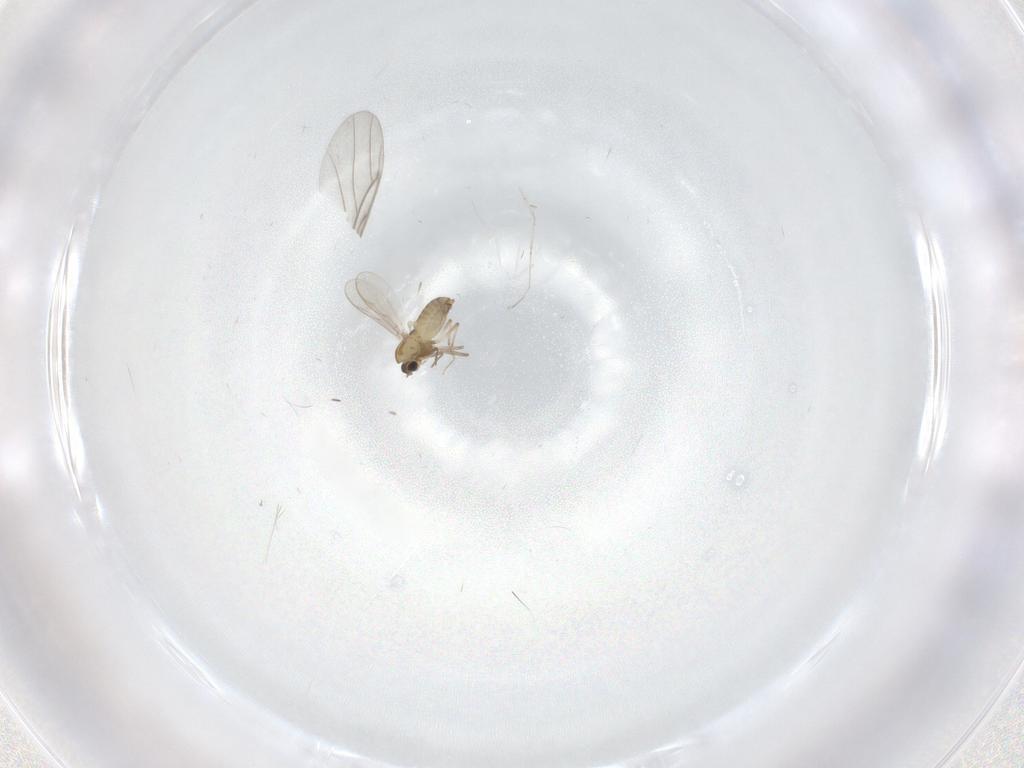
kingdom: Animalia
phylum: Arthropoda
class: Insecta
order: Diptera
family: Chironomidae
